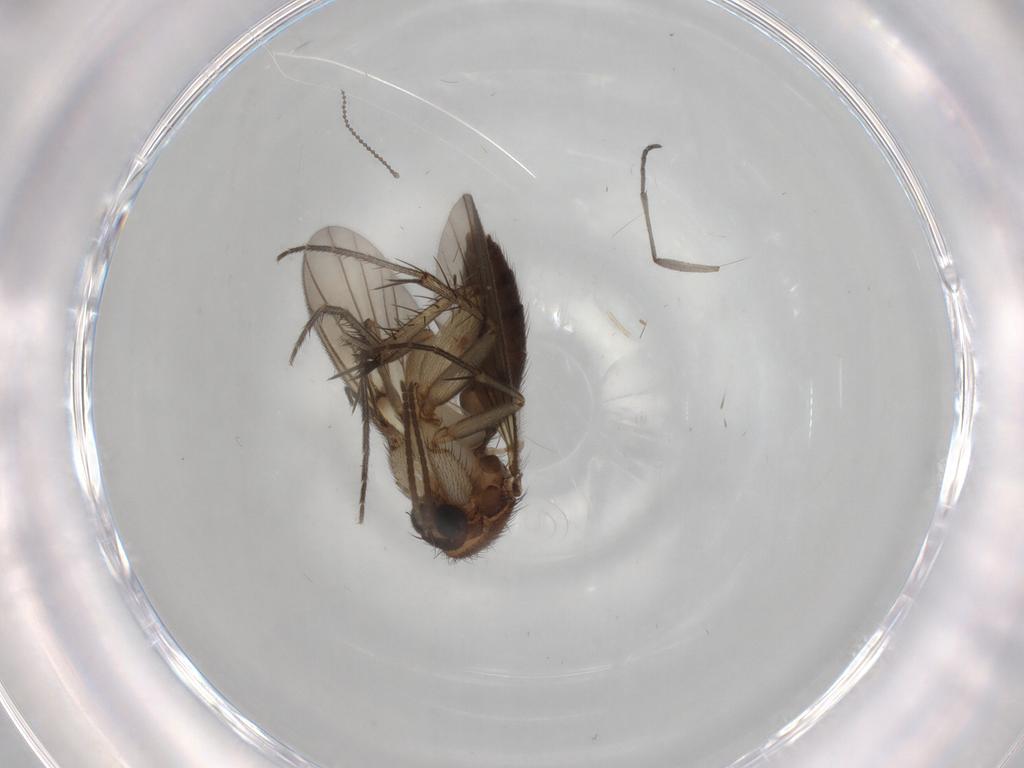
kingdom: Animalia
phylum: Arthropoda
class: Insecta
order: Diptera
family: Mycetophilidae
